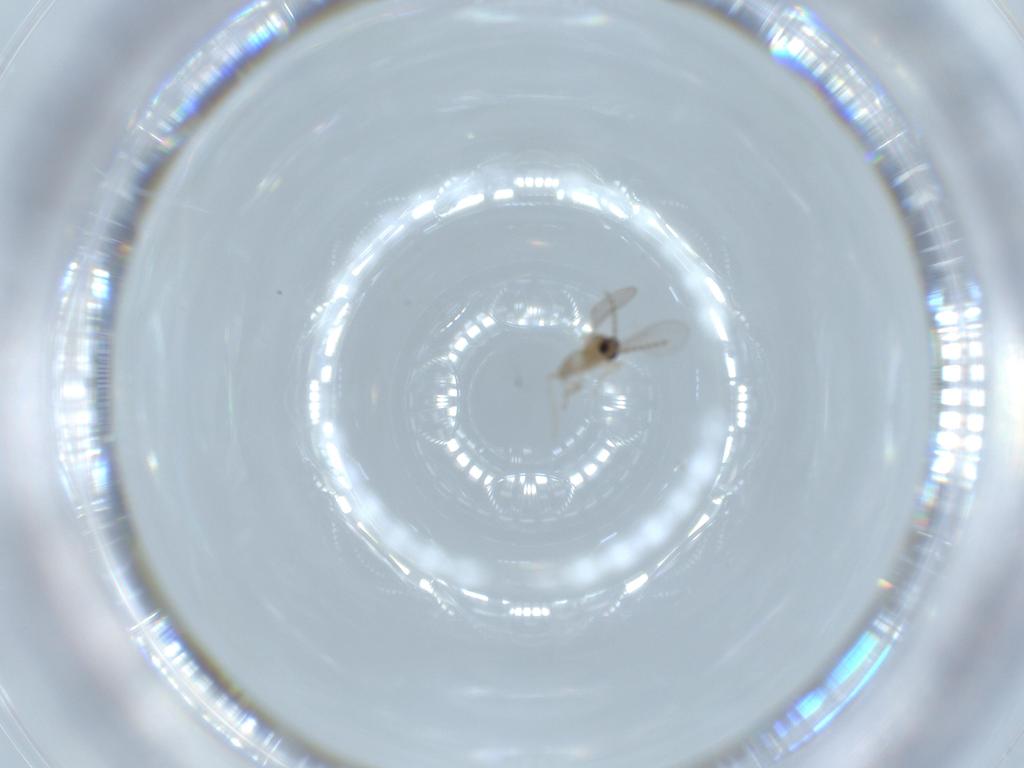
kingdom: Animalia
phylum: Arthropoda
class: Insecta
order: Diptera
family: Cecidomyiidae
